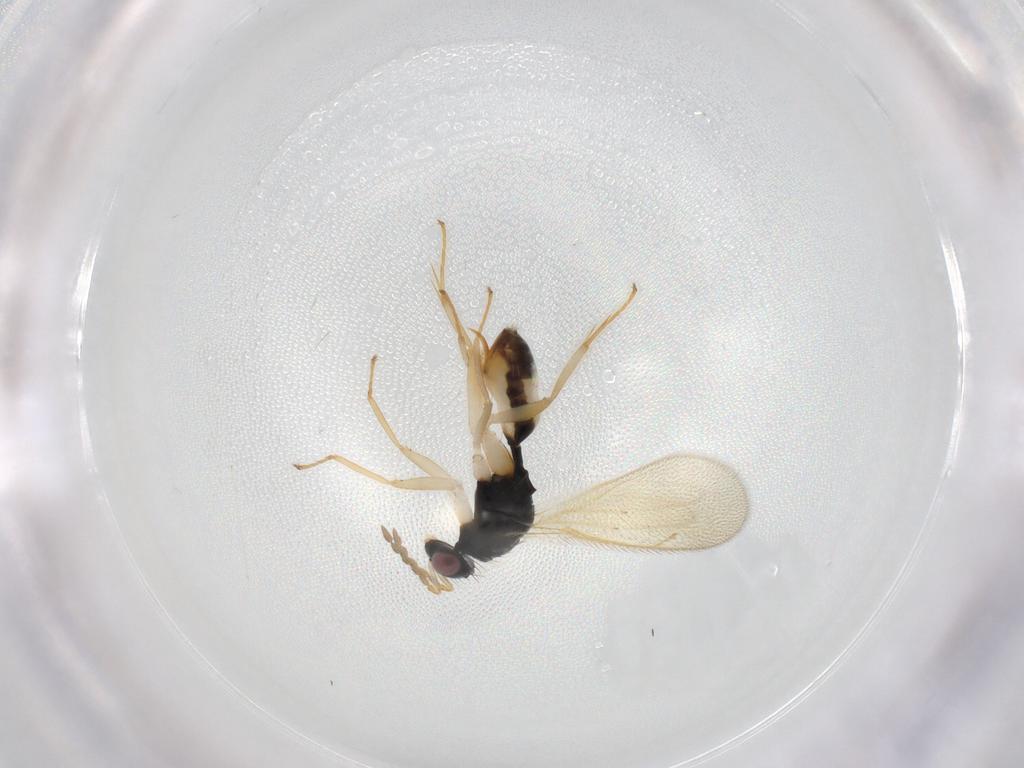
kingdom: Animalia
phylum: Arthropoda
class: Insecta
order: Hymenoptera
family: Eulophidae
